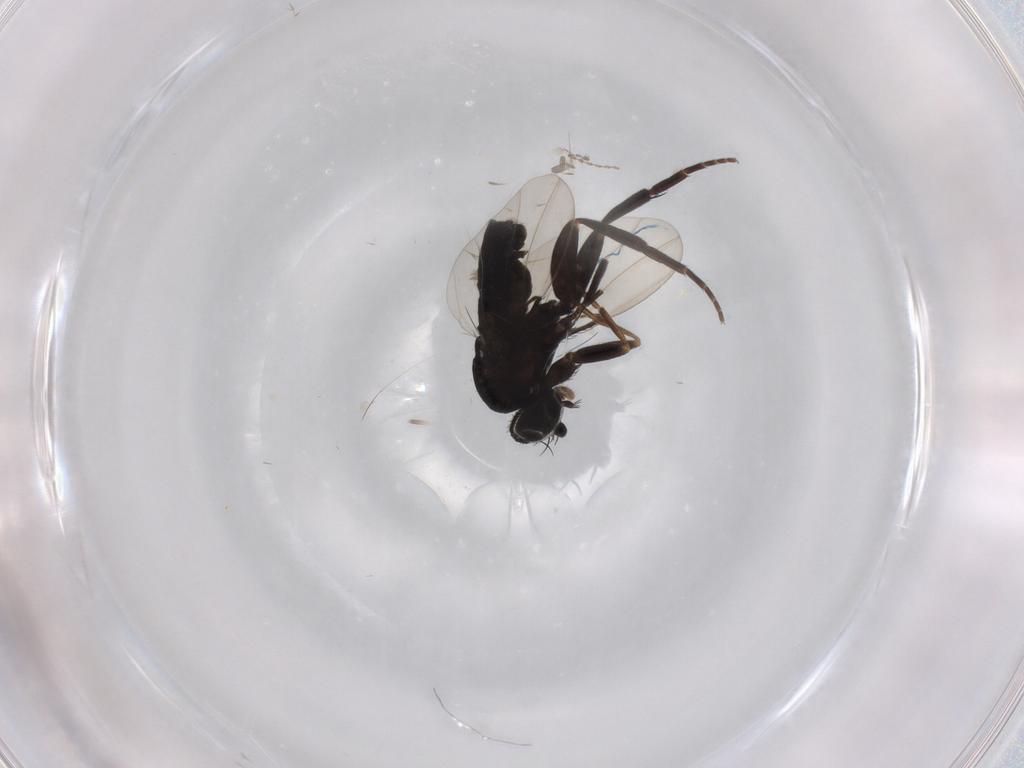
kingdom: Animalia
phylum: Arthropoda
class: Insecta
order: Diptera
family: Phoridae
